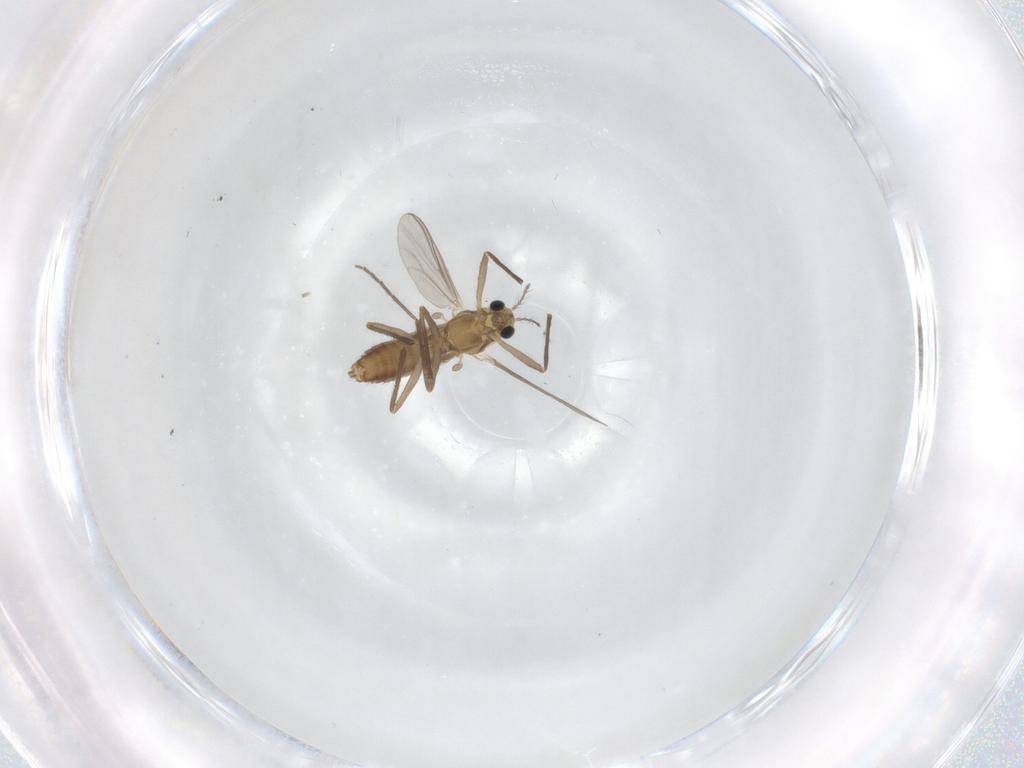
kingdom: Animalia
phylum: Arthropoda
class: Insecta
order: Diptera
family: Chironomidae
